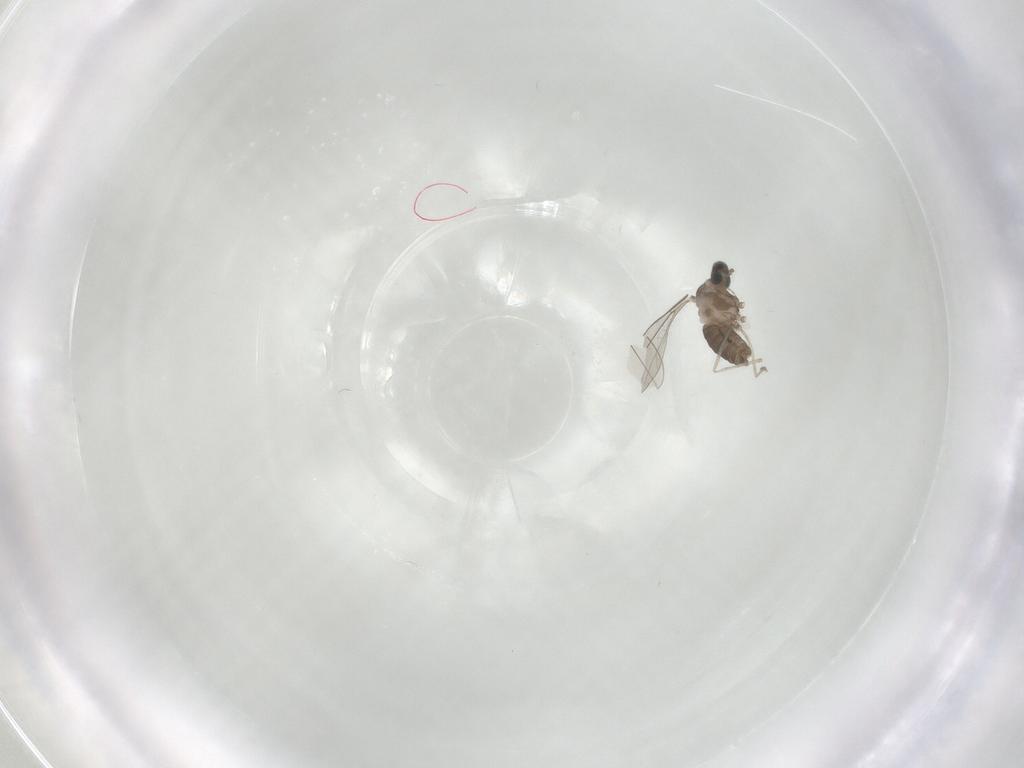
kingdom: Animalia
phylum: Arthropoda
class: Insecta
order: Diptera
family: Cecidomyiidae
